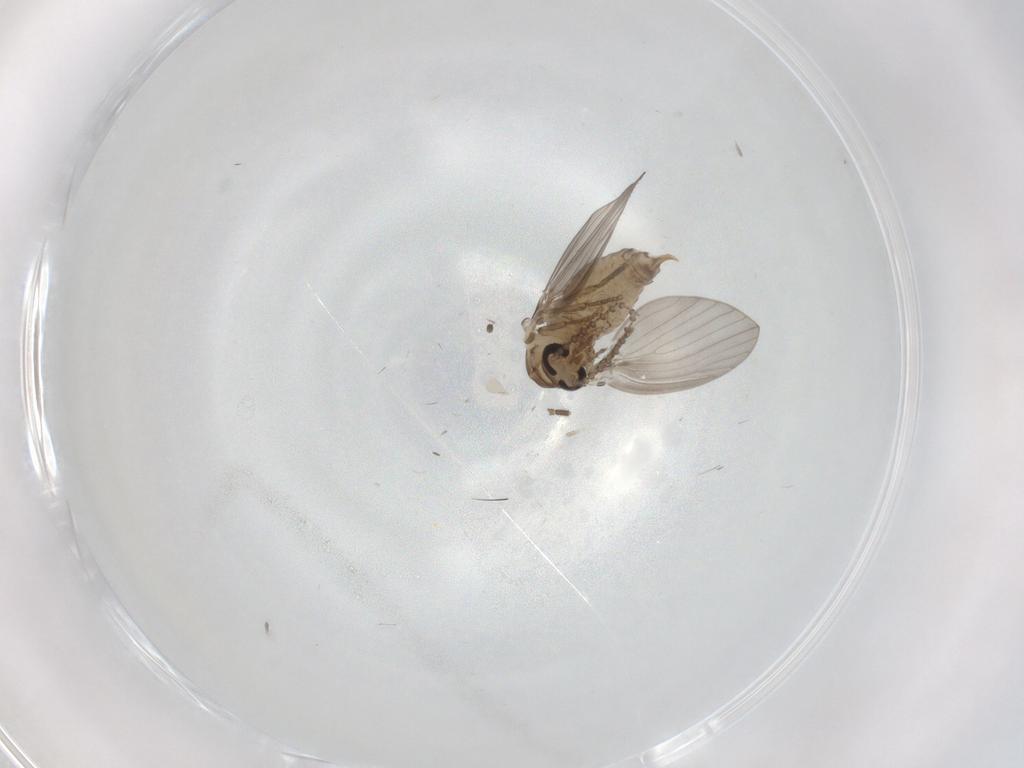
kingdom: Animalia
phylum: Arthropoda
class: Insecta
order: Diptera
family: Psychodidae
